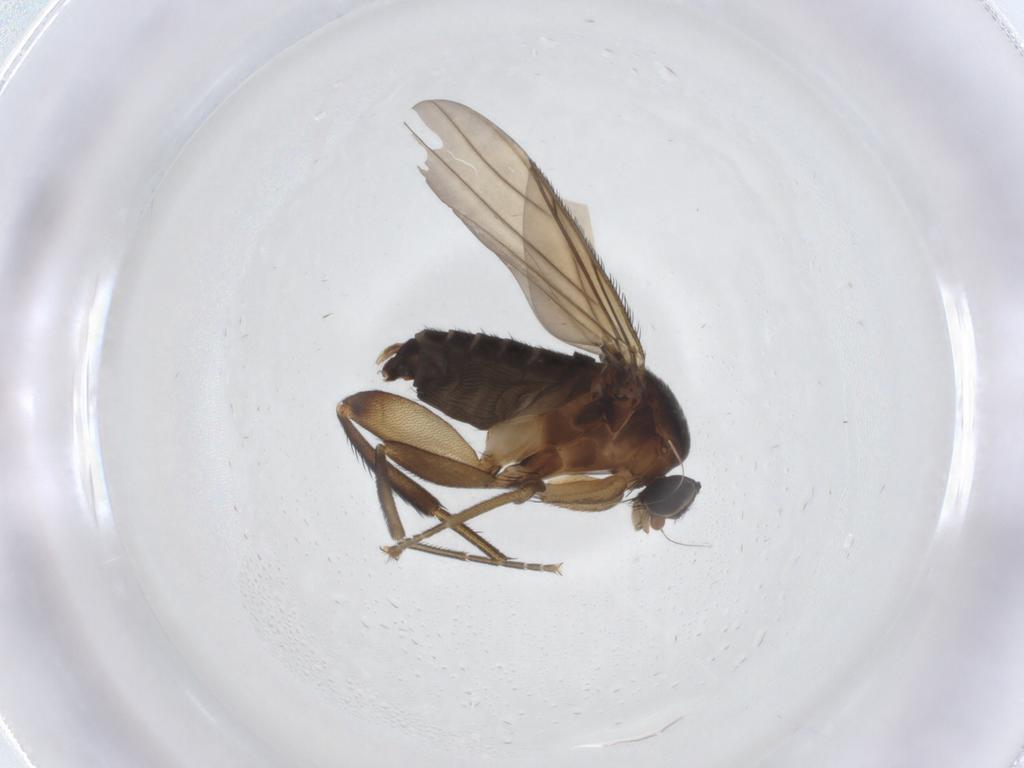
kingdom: Animalia
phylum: Arthropoda
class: Insecta
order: Diptera
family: Phoridae
